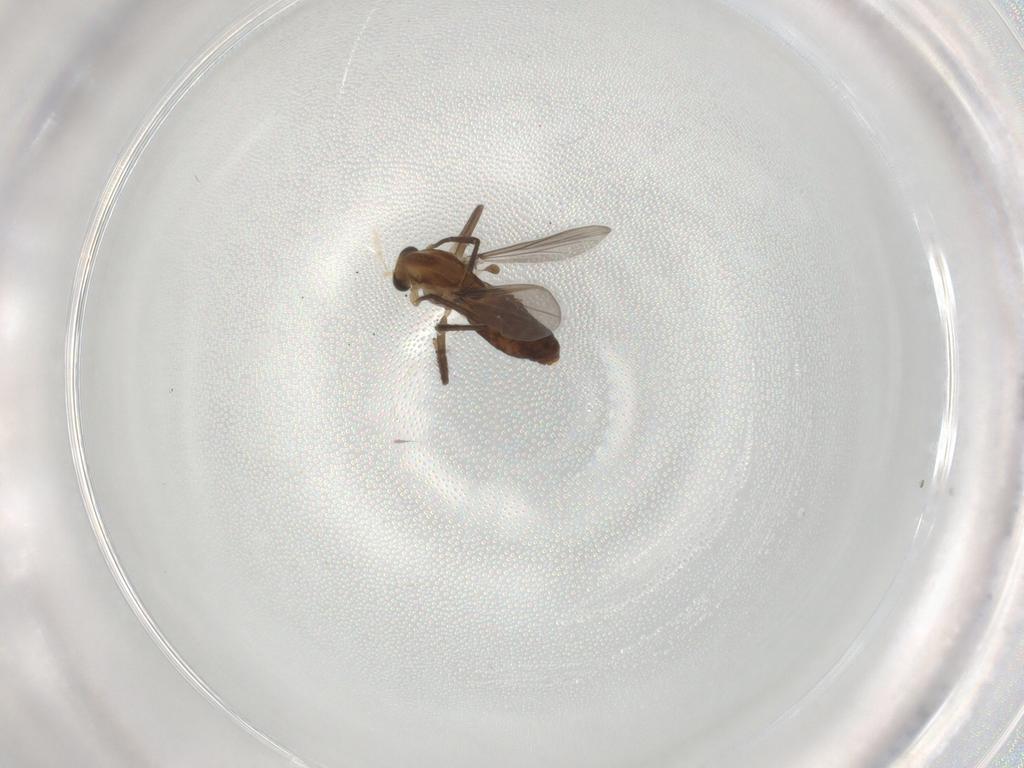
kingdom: Animalia
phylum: Arthropoda
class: Insecta
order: Diptera
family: Chironomidae
